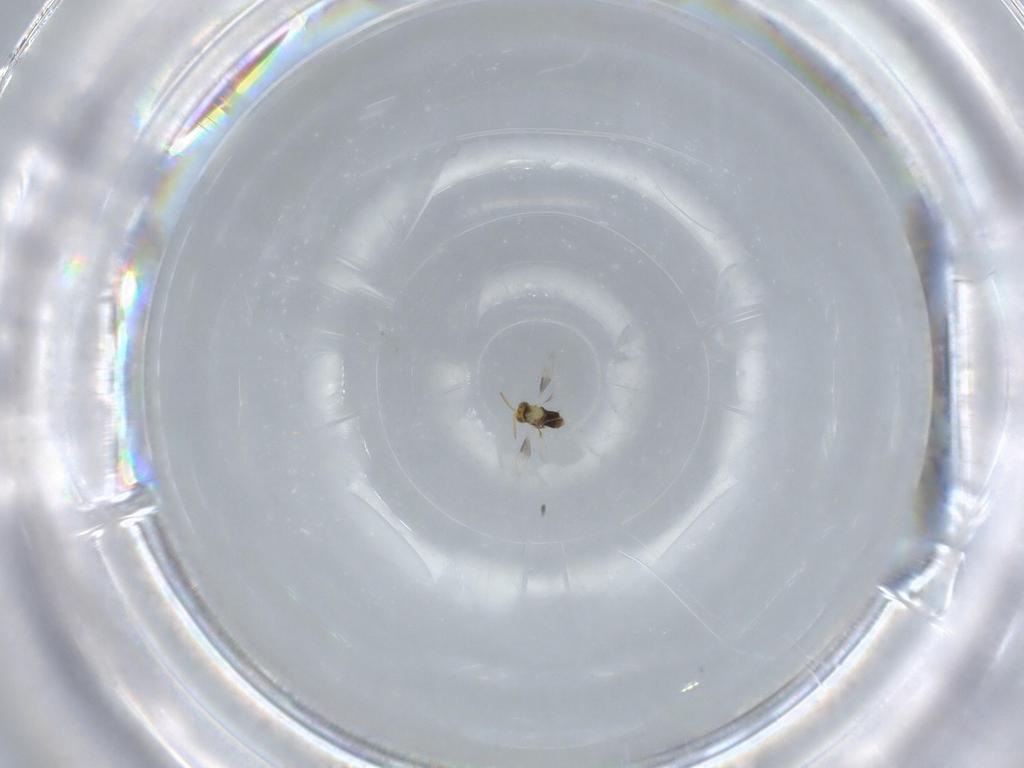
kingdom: Animalia
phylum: Arthropoda
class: Insecta
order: Hymenoptera
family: Aphelinidae
